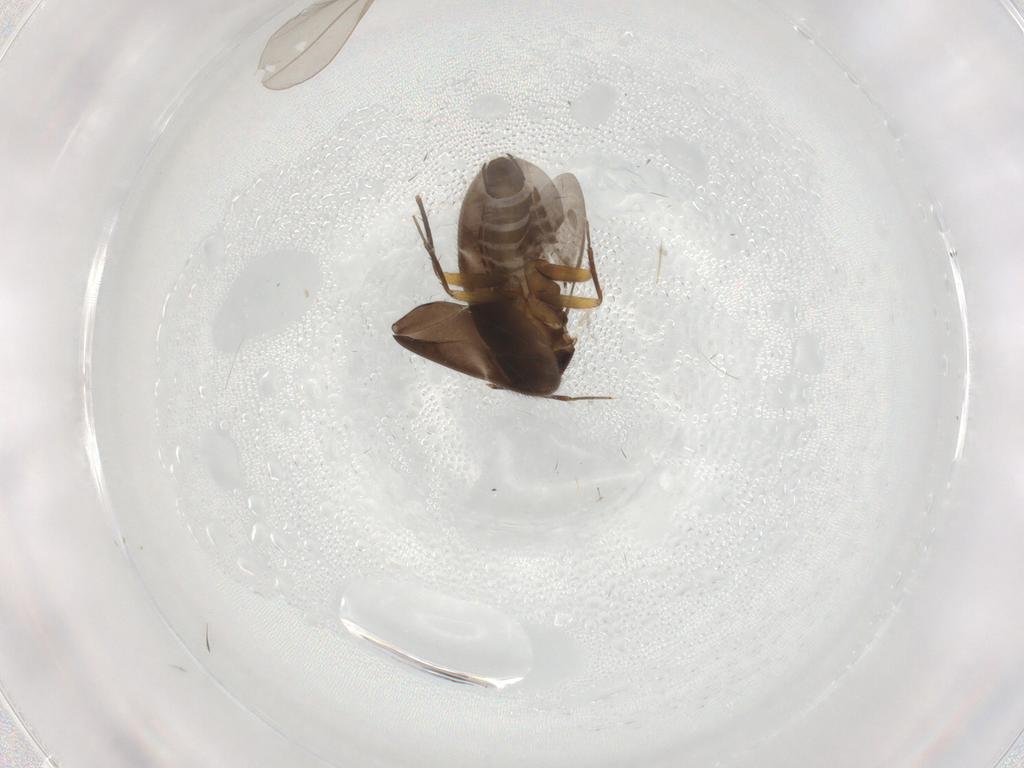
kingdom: Animalia
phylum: Arthropoda
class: Insecta
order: Hemiptera
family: Ceratocombidae
